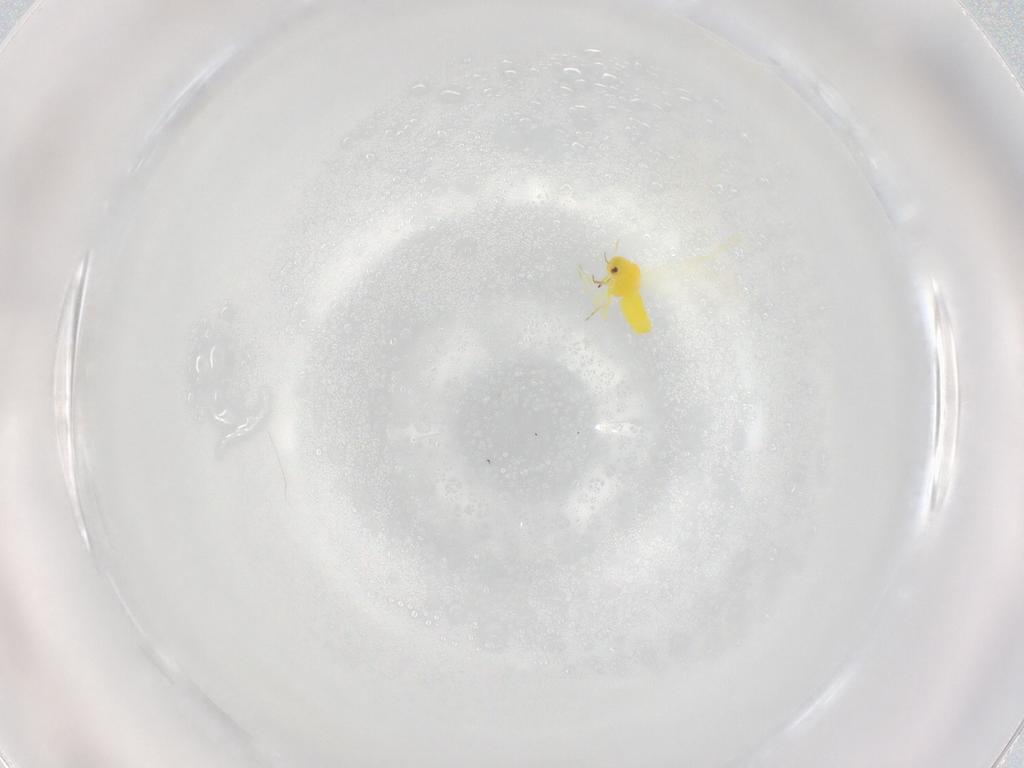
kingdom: Animalia
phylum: Arthropoda
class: Insecta
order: Hemiptera
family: Aleyrodidae
